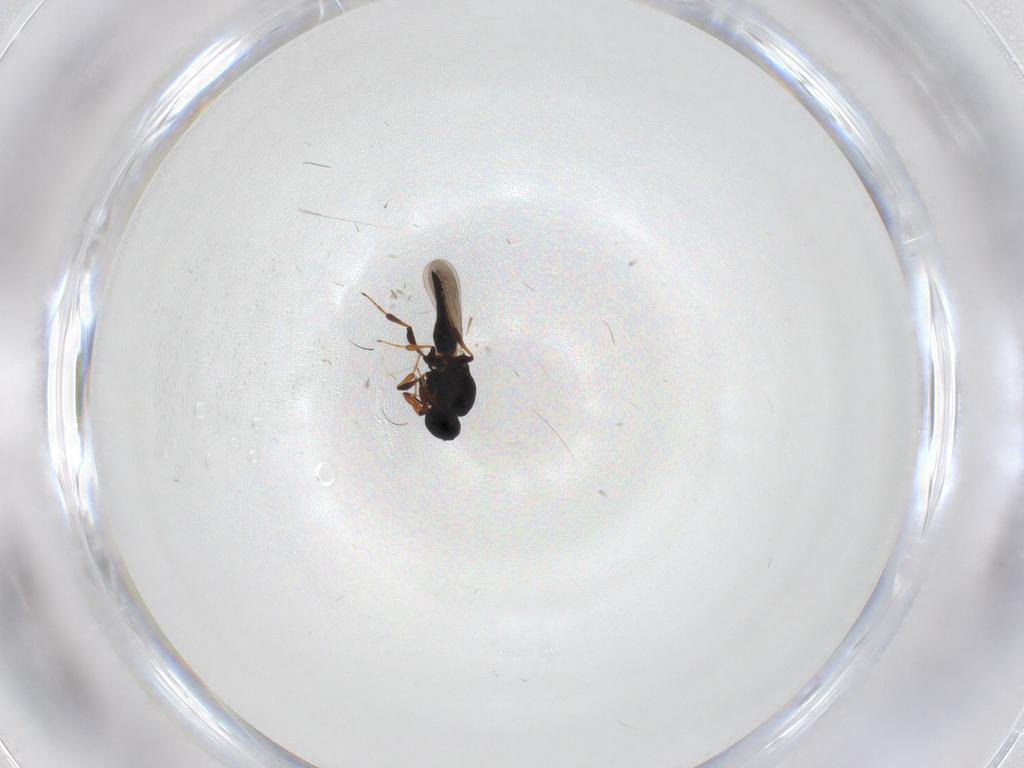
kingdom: Animalia
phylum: Arthropoda
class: Insecta
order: Hymenoptera
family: Platygastridae
